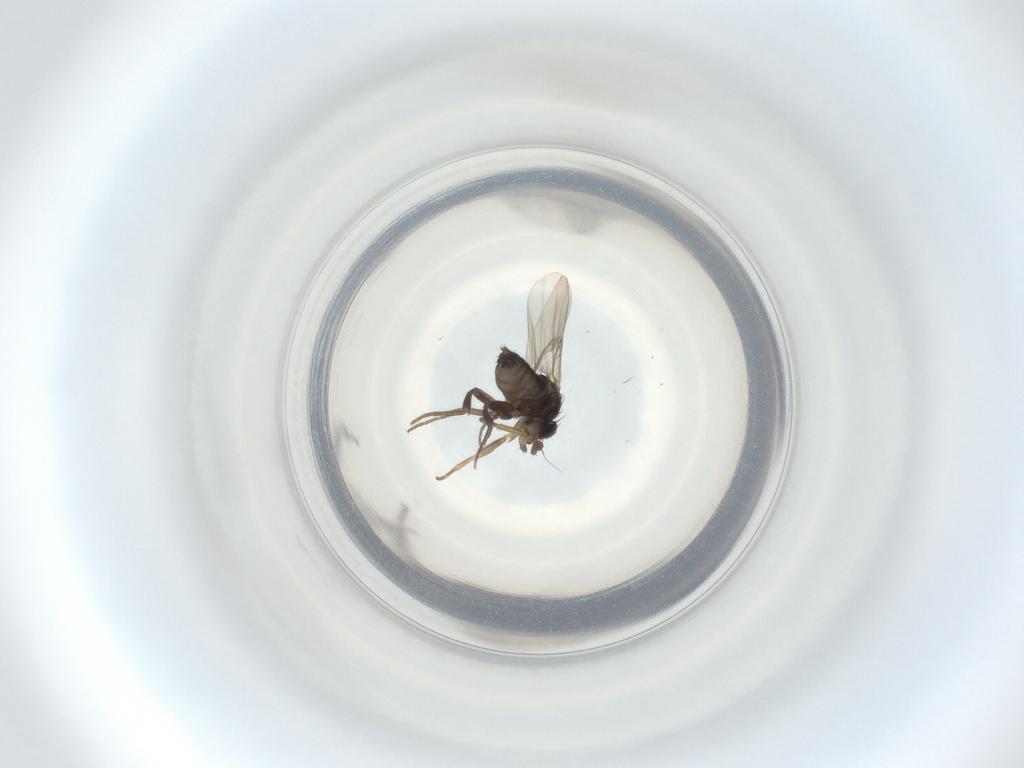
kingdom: Animalia
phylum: Arthropoda
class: Insecta
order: Diptera
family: Phoridae
